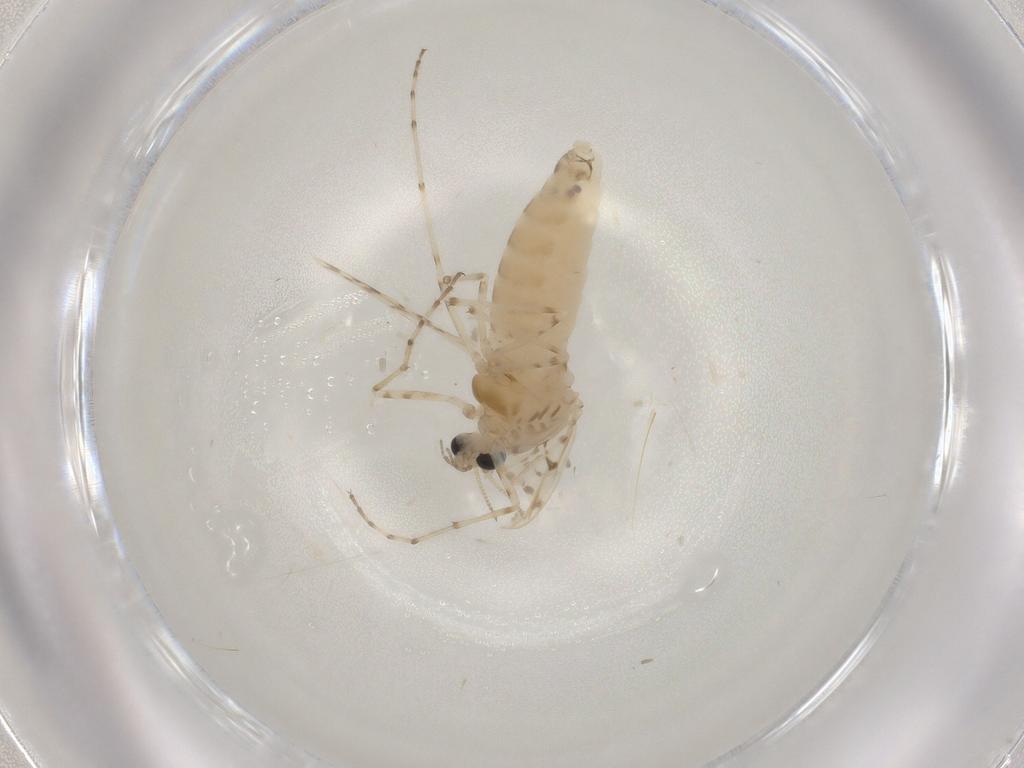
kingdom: Animalia
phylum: Arthropoda
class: Insecta
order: Diptera
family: Chironomidae
